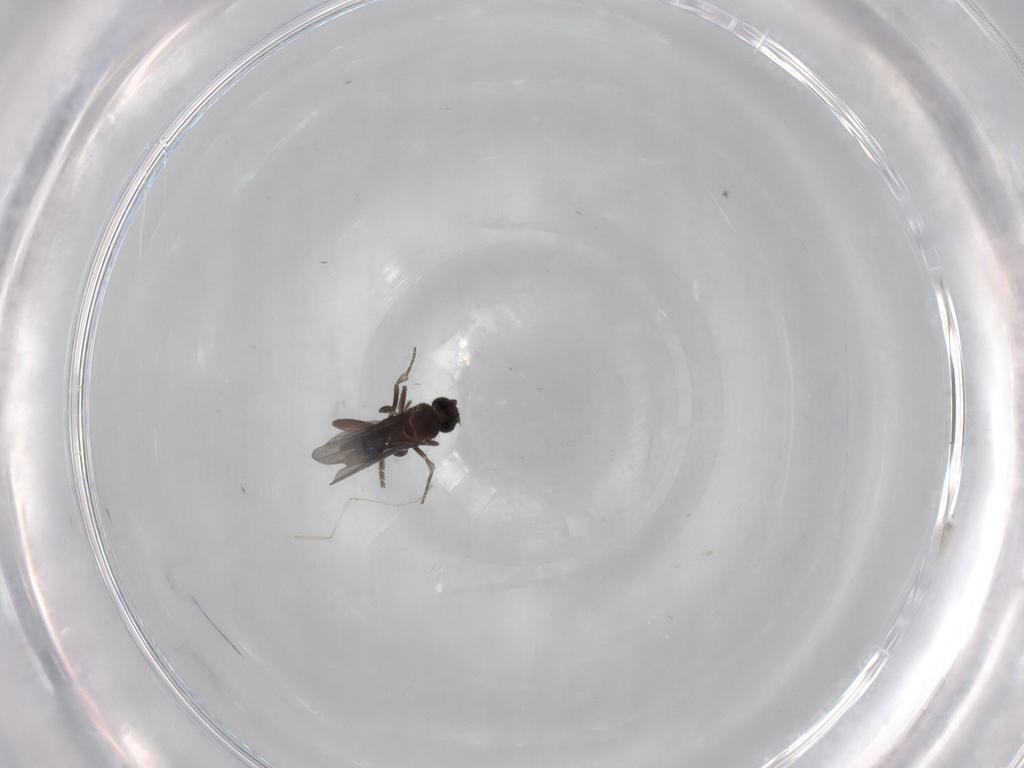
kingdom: Animalia
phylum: Arthropoda
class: Insecta
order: Diptera
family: Phoridae
